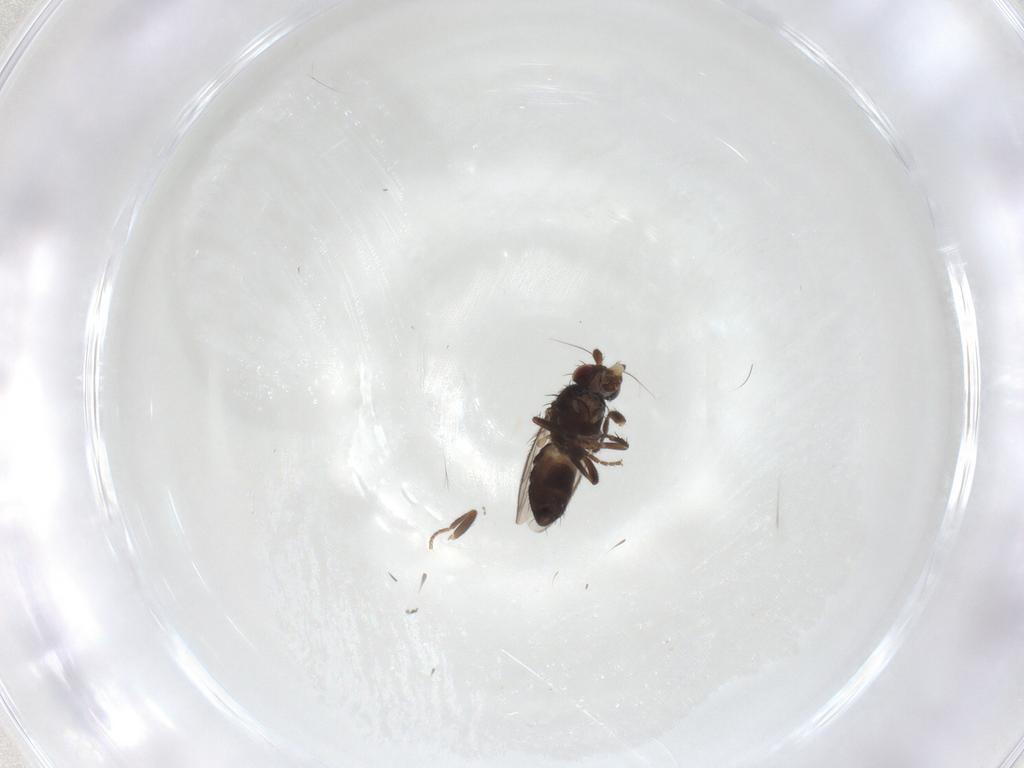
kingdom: Animalia
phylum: Arthropoda
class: Insecta
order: Diptera
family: Sphaeroceridae
